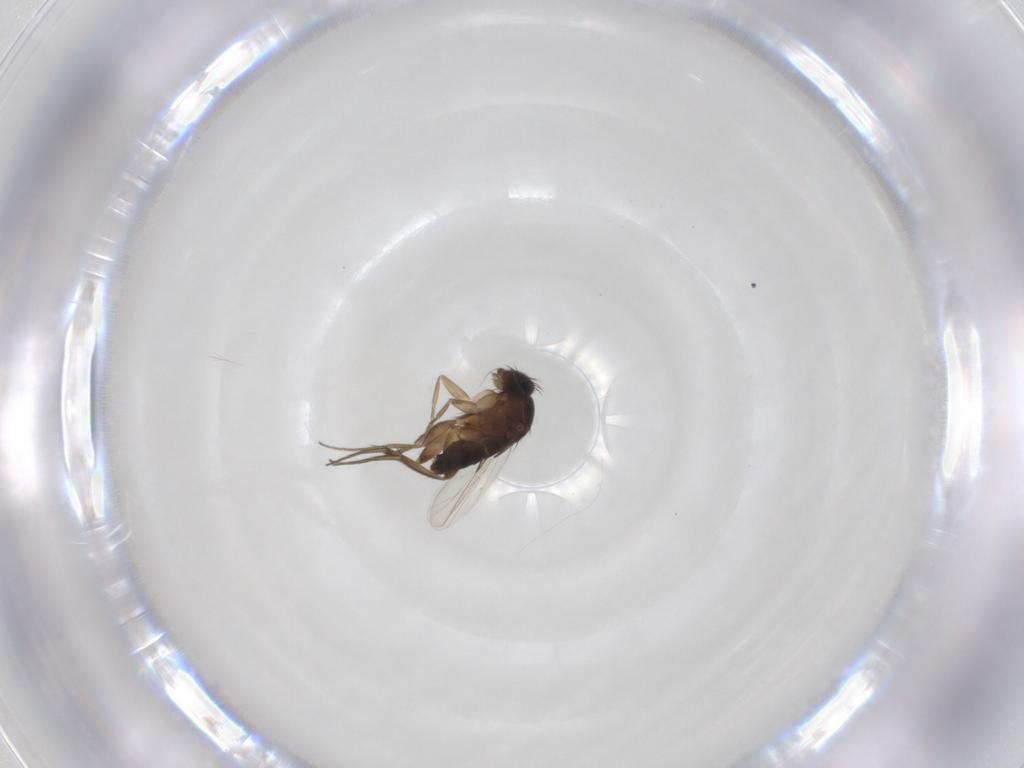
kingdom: Animalia
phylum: Arthropoda
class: Insecta
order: Diptera
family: Phoridae
